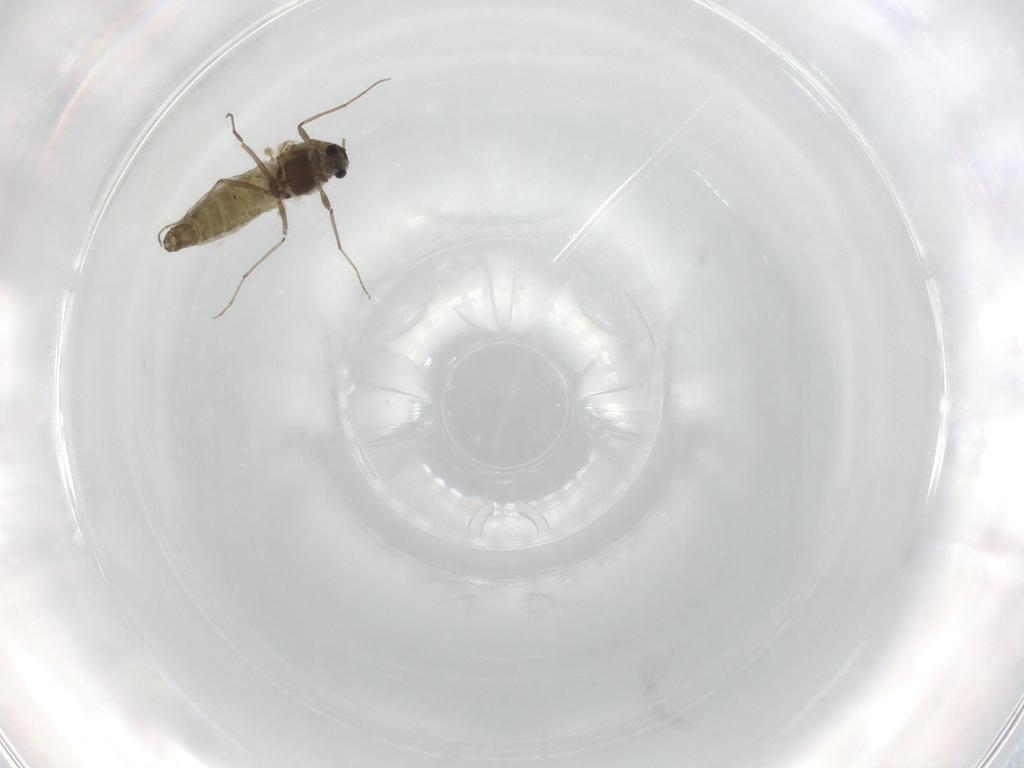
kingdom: Animalia
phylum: Arthropoda
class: Insecta
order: Diptera
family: Chironomidae
